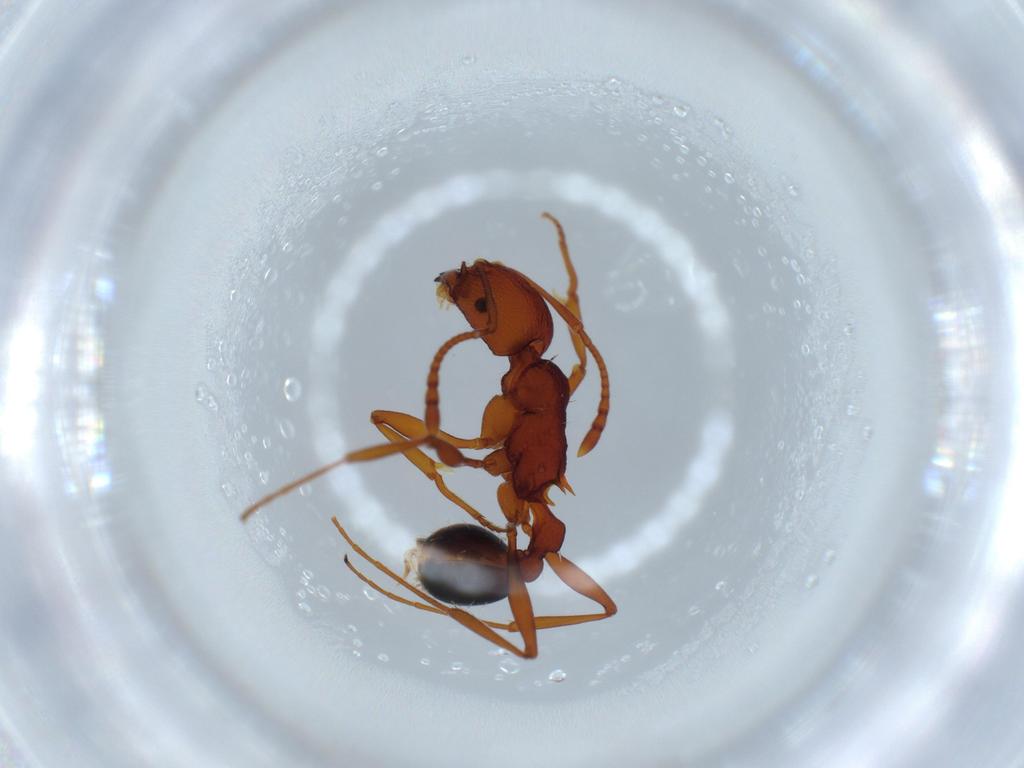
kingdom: Animalia
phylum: Arthropoda
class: Insecta
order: Hymenoptera
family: Formicidae
